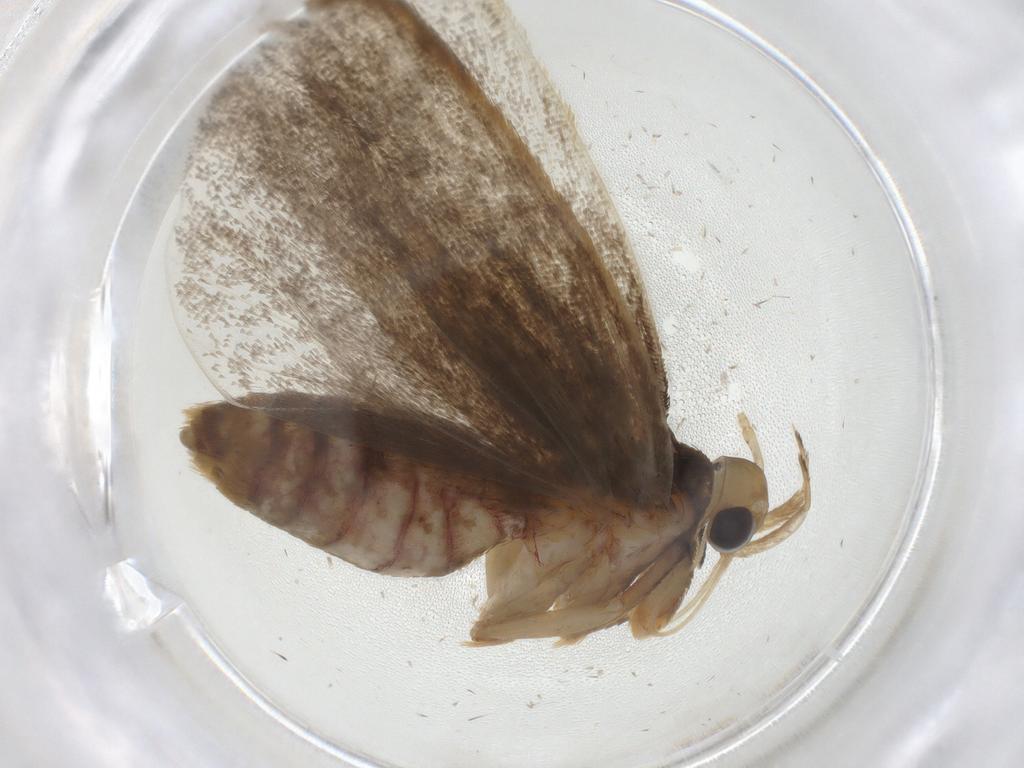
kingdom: Animalia
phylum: Arthropoda
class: Insecta
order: Lepidoptera
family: Lecithoceridae
